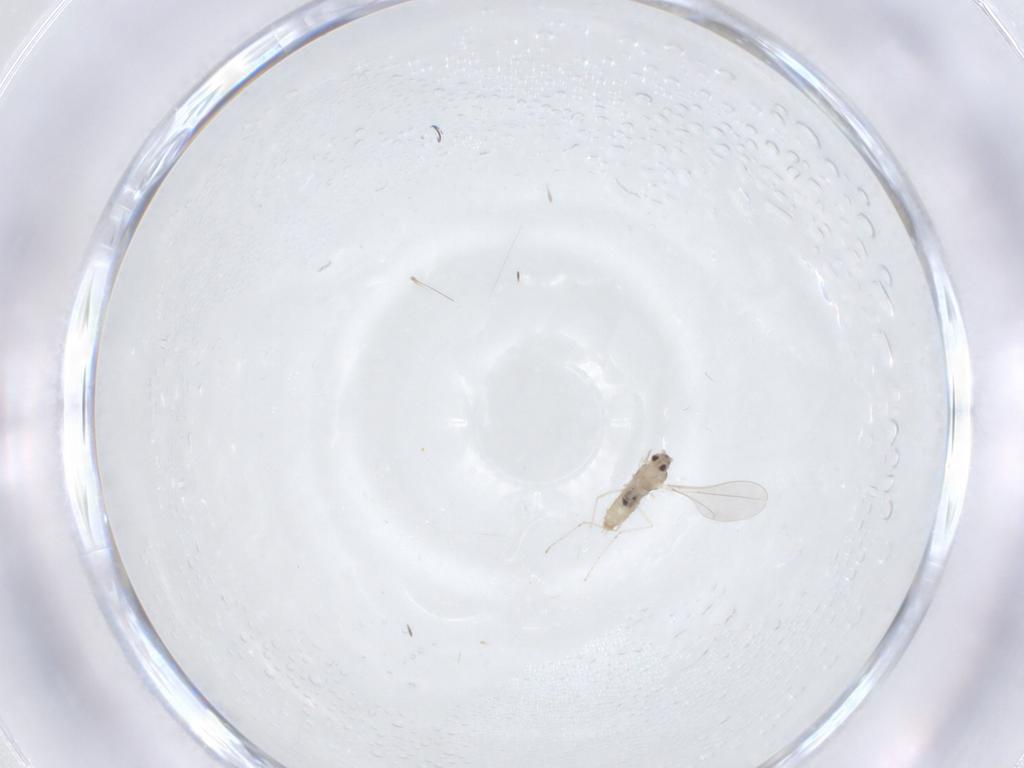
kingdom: Animalia
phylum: Arthropoda
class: Insecta
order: Diptera
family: Cecidomyiidae
